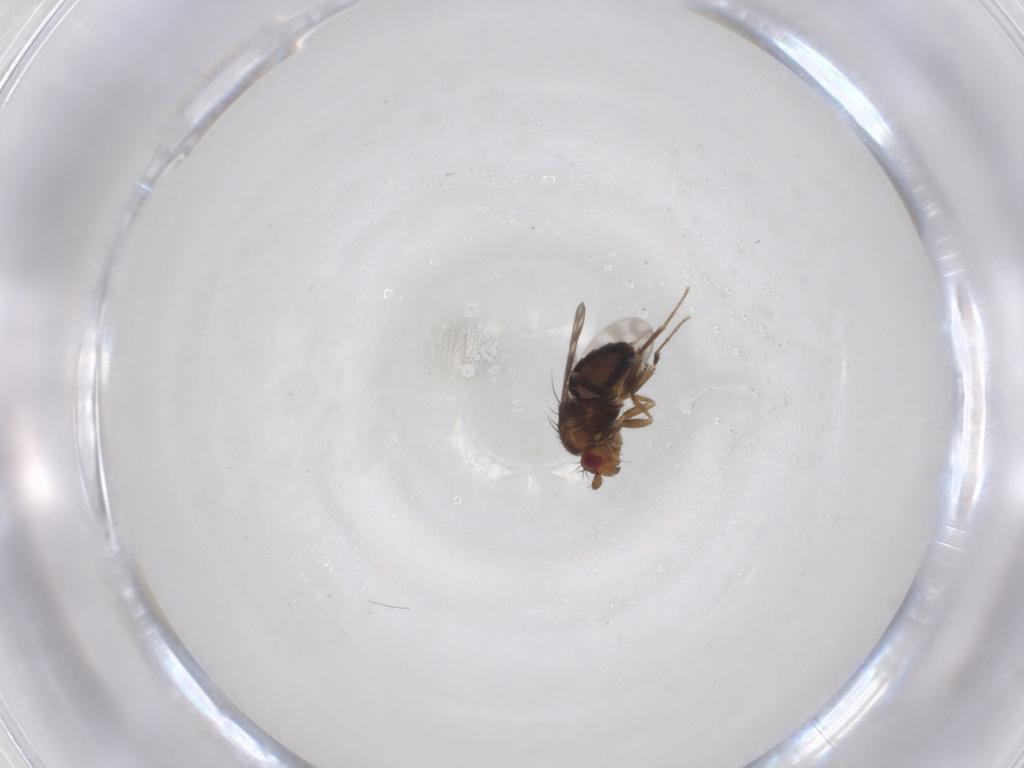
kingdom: Animalia
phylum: Arthropoda
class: Insecta
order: Diptera
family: Sphaeroceridae
